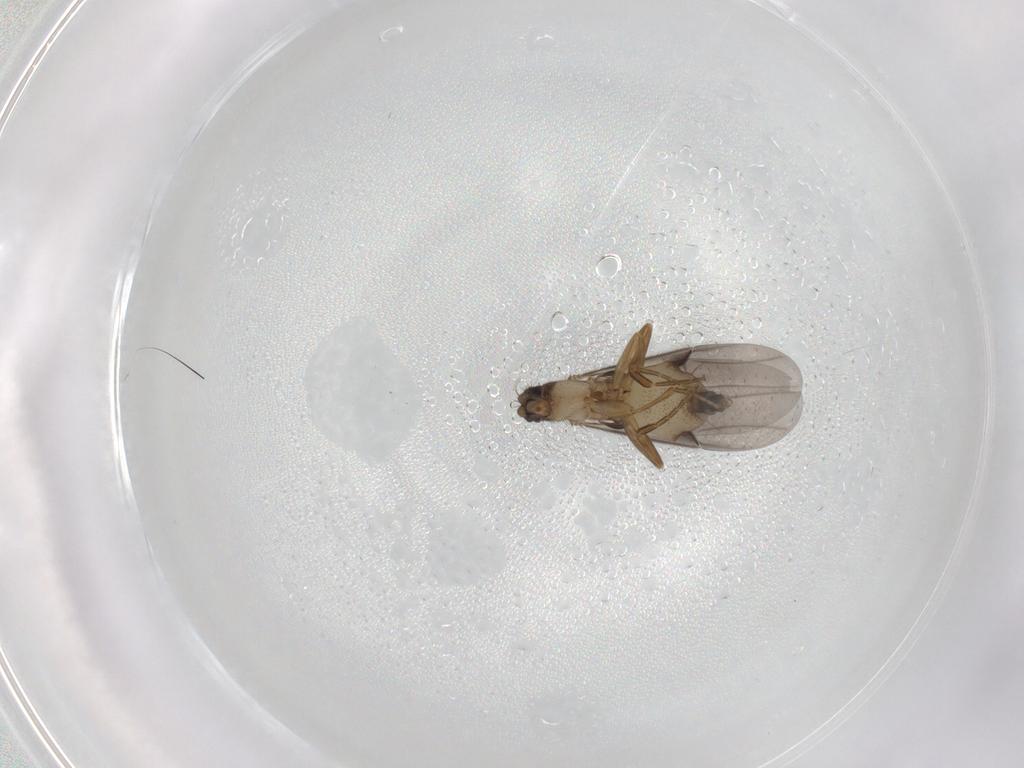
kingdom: Animalia
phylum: Arthropoda
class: Insecta
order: Diptera
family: Phoridae
